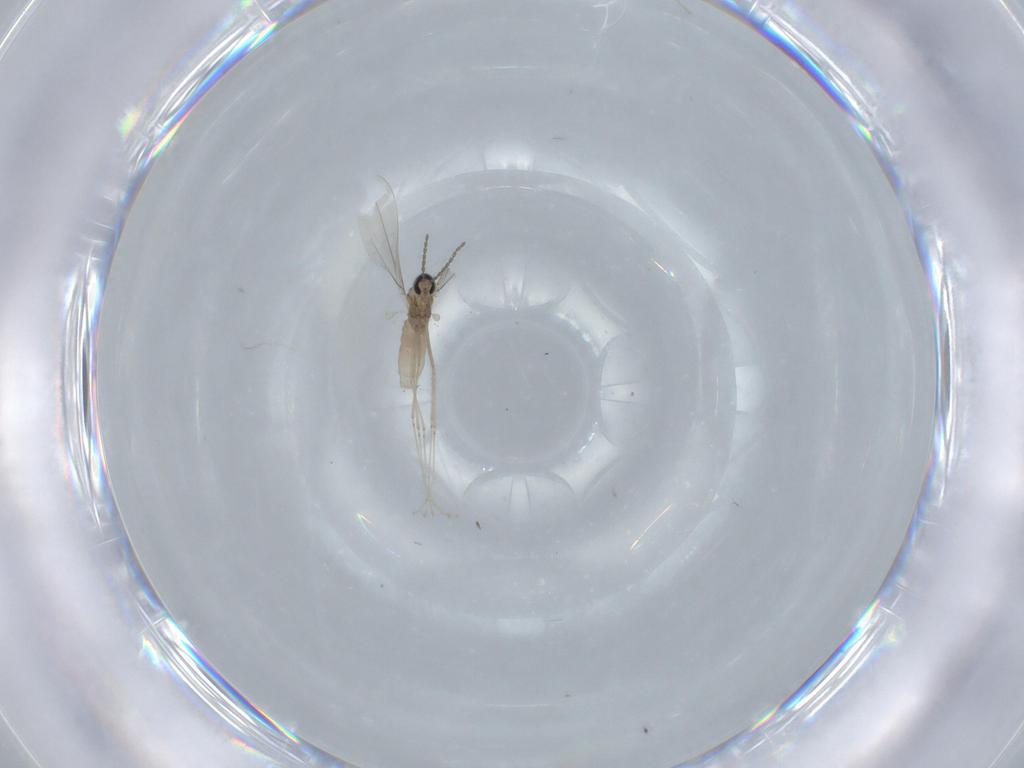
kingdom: Animalia
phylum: Arthropoda
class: Insecta
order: Diptera
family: Cecidomyiidae
